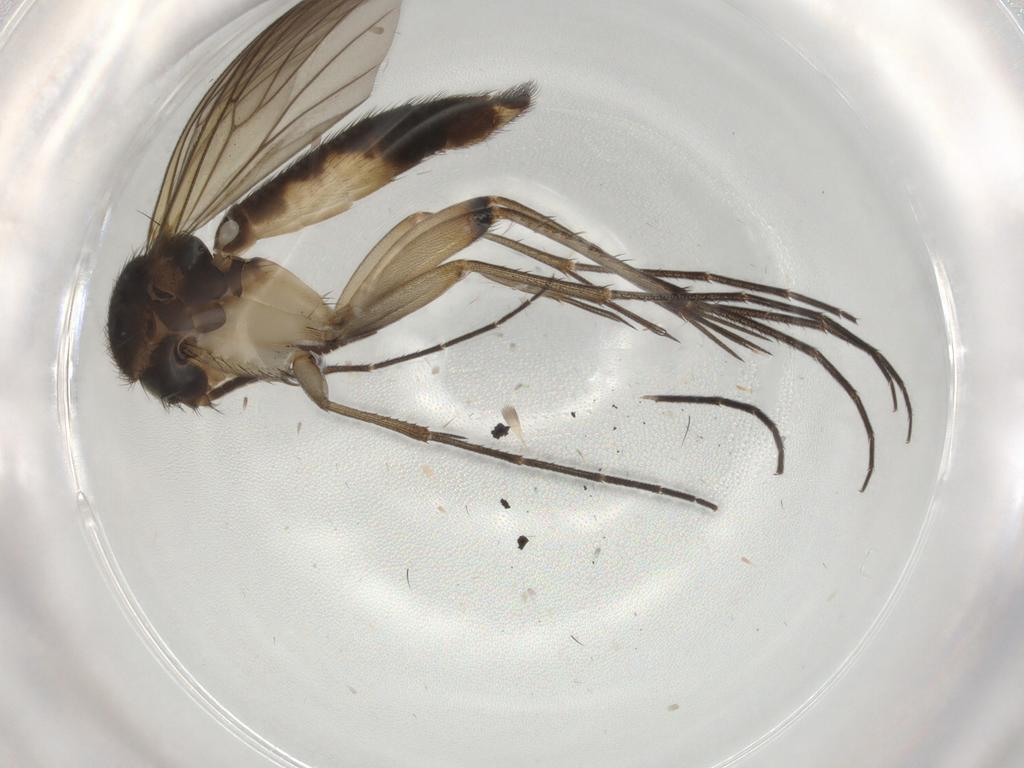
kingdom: Animalia
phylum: Arthropoda
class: Insecta
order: Diptera
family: Mycetophilidae
